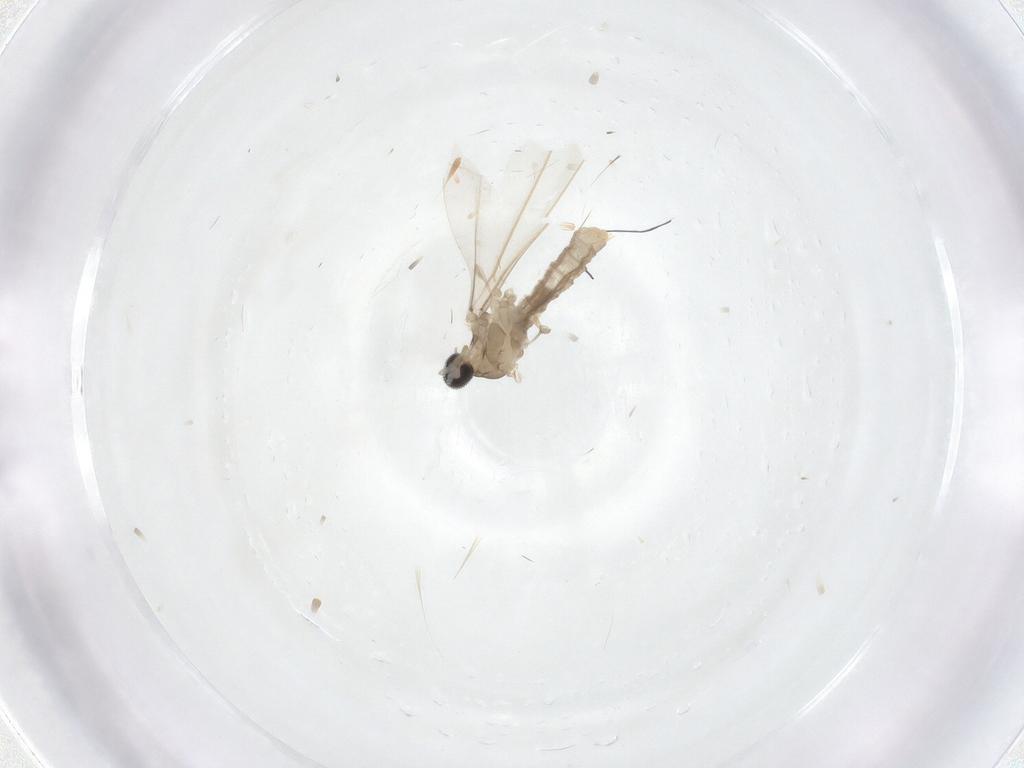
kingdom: Animalia
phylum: Arthropoda
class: Insecta
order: Diptera
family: Cecidomyiidae
